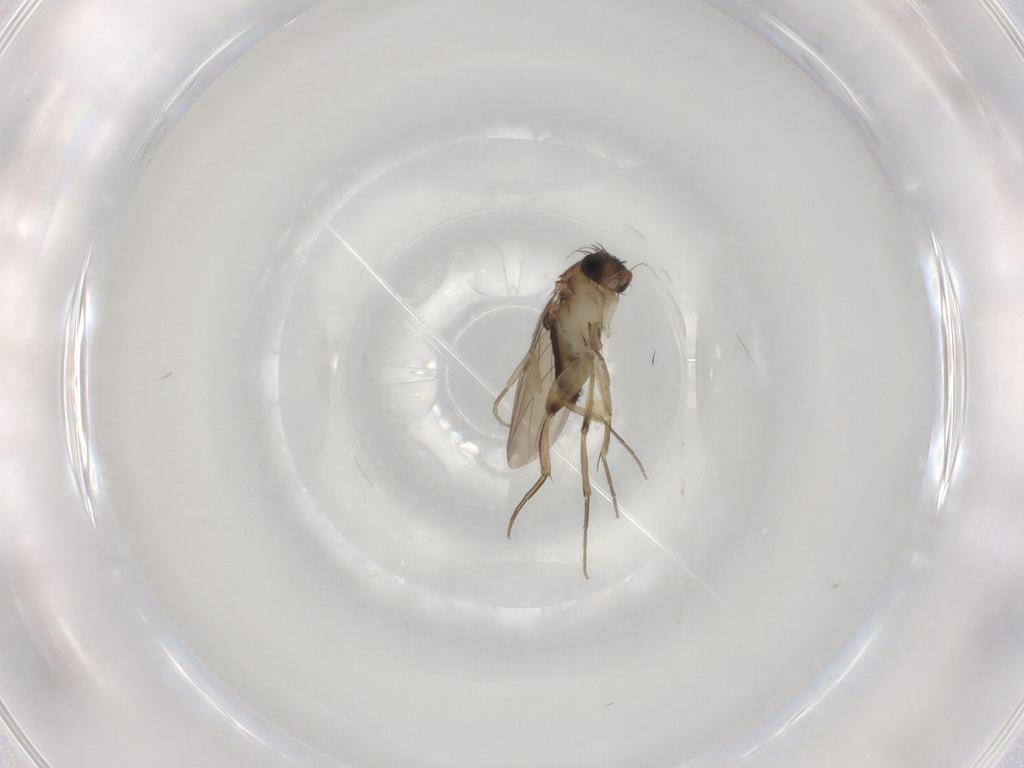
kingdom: Animalia
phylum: Arthropoda
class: Insecta
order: Diptera
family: Phoridae
